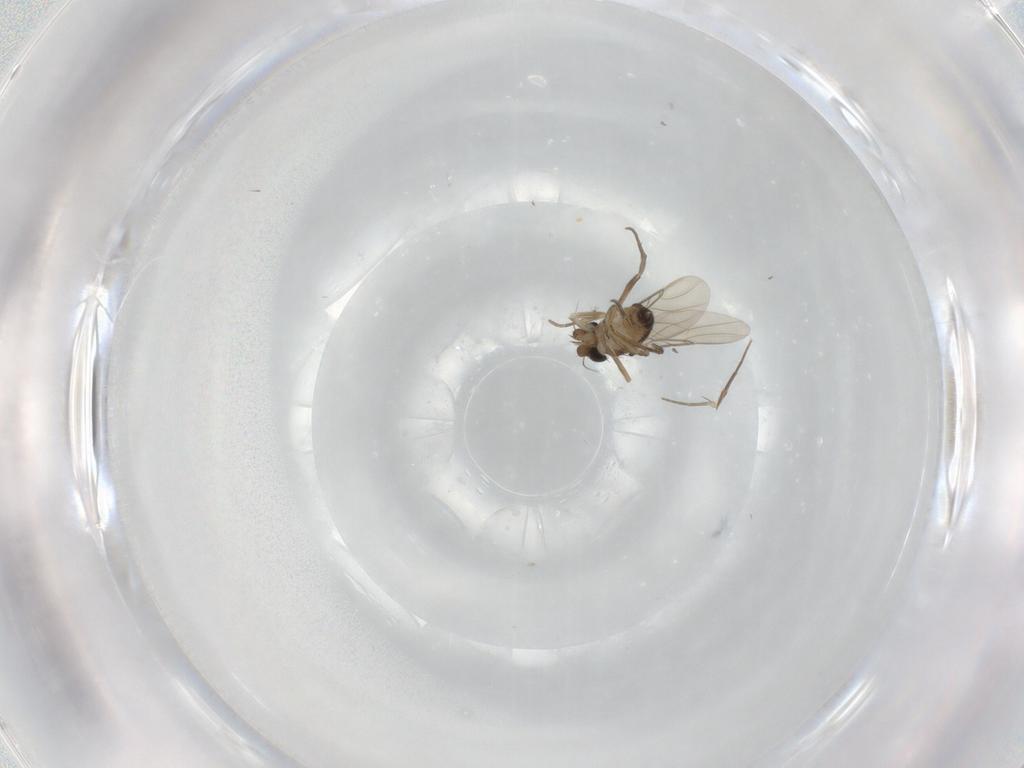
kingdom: Animalia
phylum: Arthropoda
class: Insecta
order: Diptera
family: Phoridae
